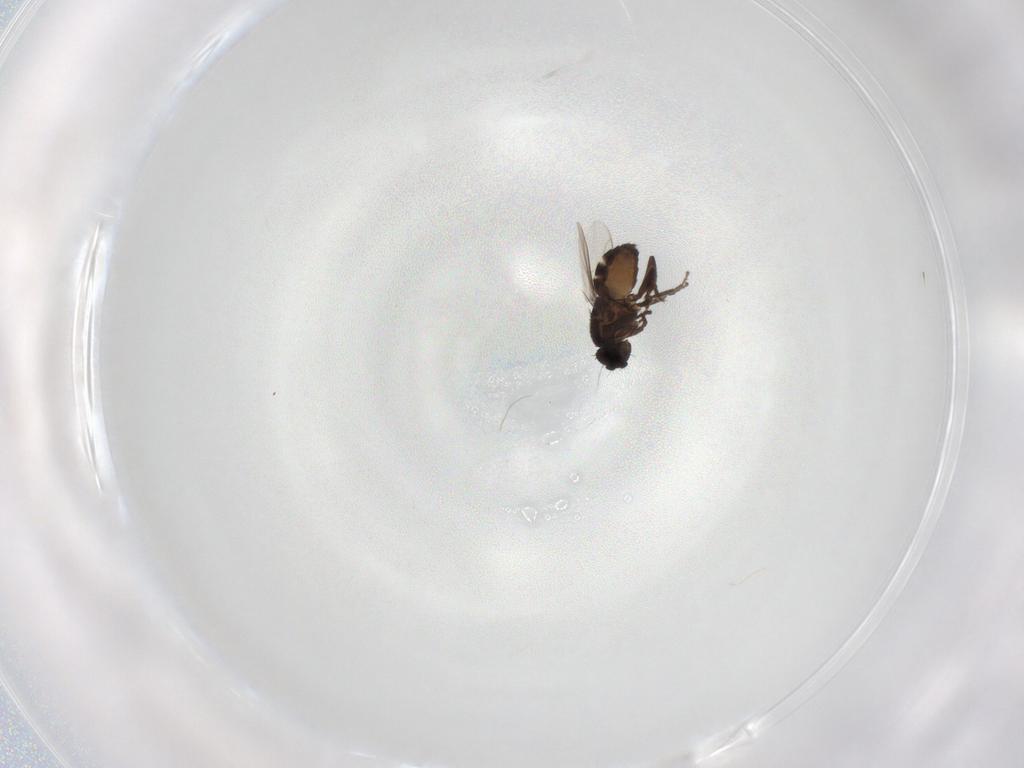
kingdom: Animalia
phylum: Arthropoda
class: Insecta
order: Diptera
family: Sphaeroceridae
